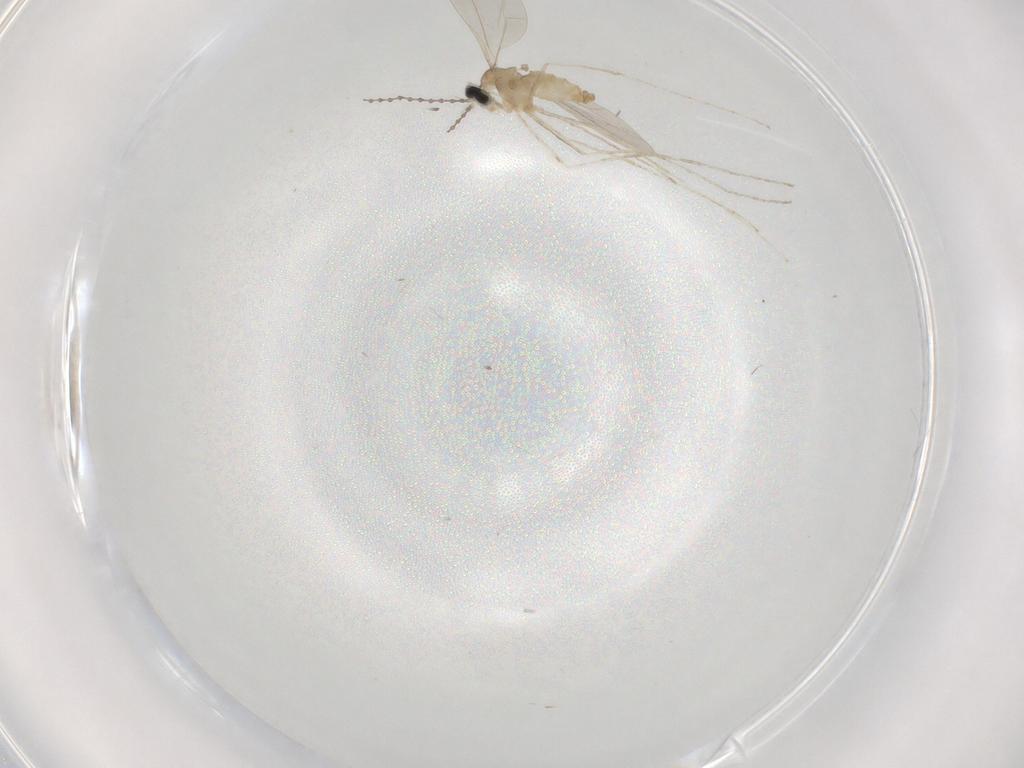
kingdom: Animalia
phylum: Arthropoda
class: Insecta
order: Diptera
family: Cecidomyiidae
